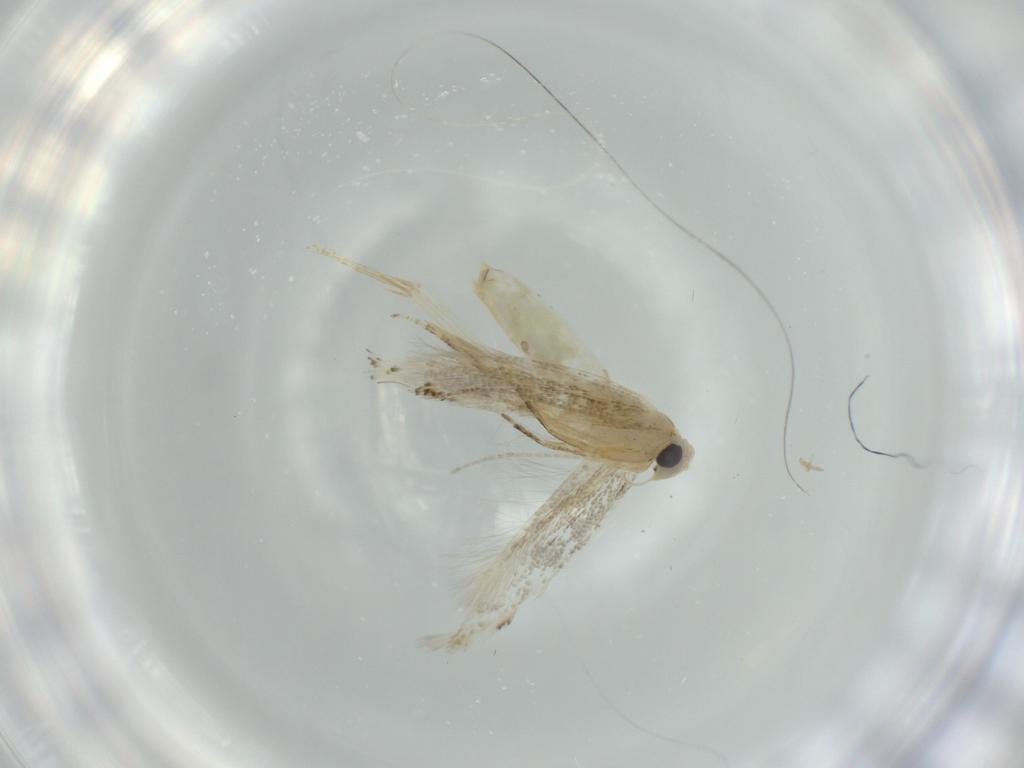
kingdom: Animalia
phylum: Arthropoda
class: Insecta
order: Lepidoptera
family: Bucculatricidae
